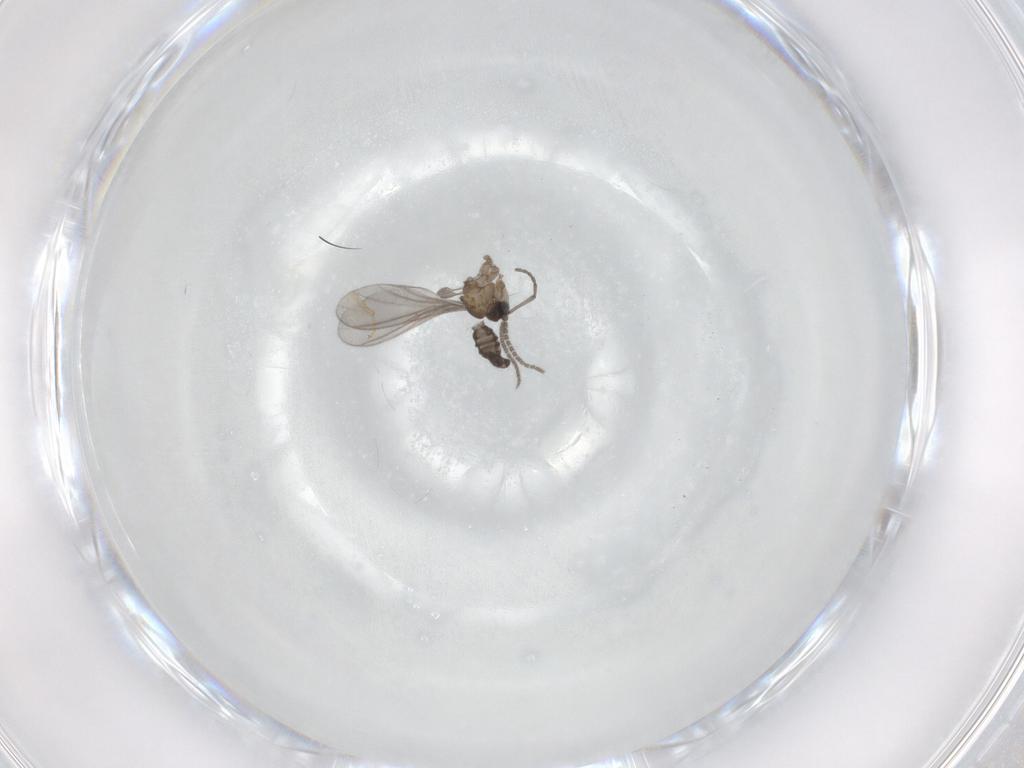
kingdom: Animalia
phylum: Arthropoda
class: Insecta
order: Diptera
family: Sciaridae
